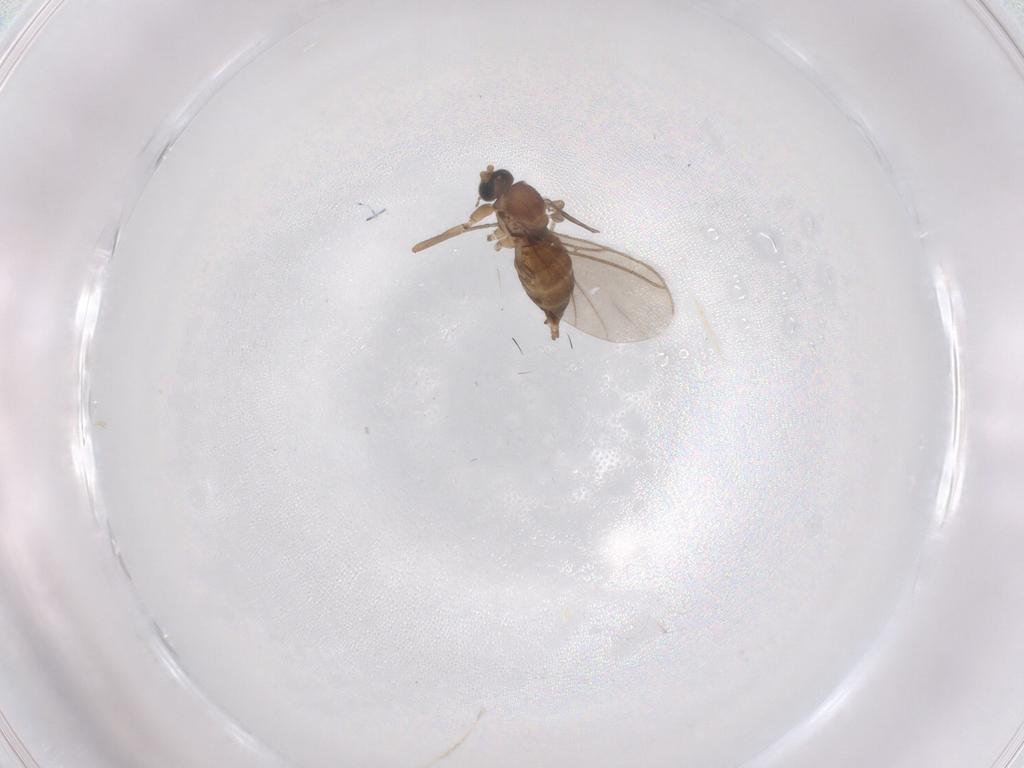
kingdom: Animalia
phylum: Arthropoda
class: Insecta
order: Diptera
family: Sciaridae
